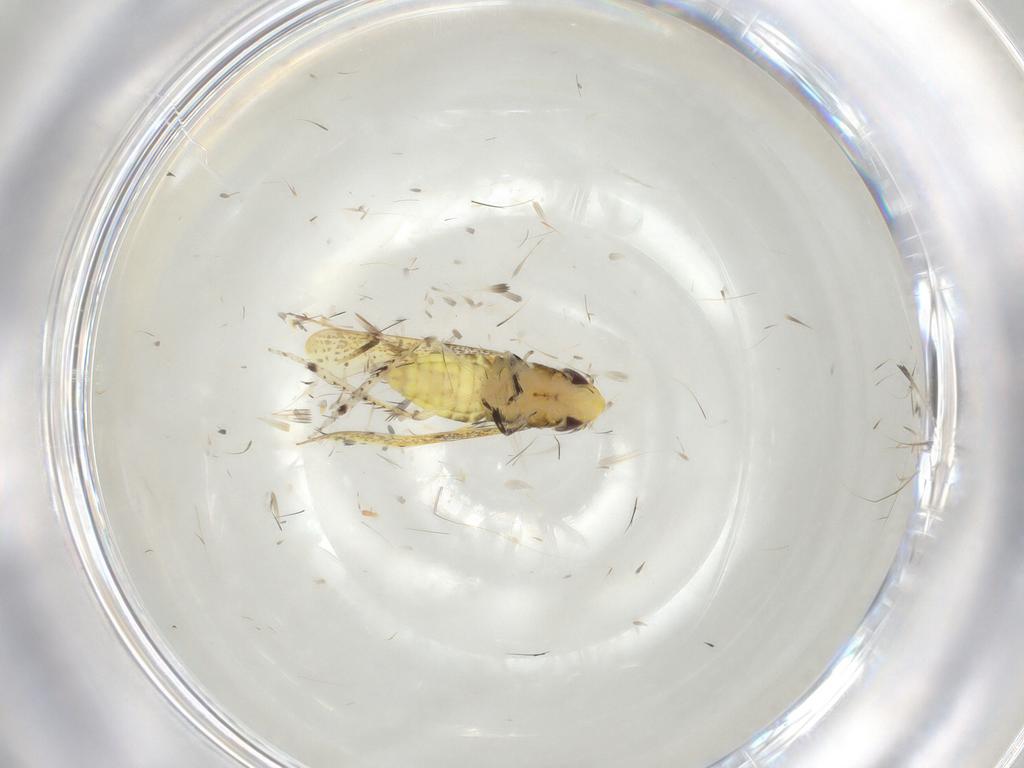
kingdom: Animalia
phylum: Arthropoda
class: Insecta
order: Hemiptera
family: Cicadellidae
